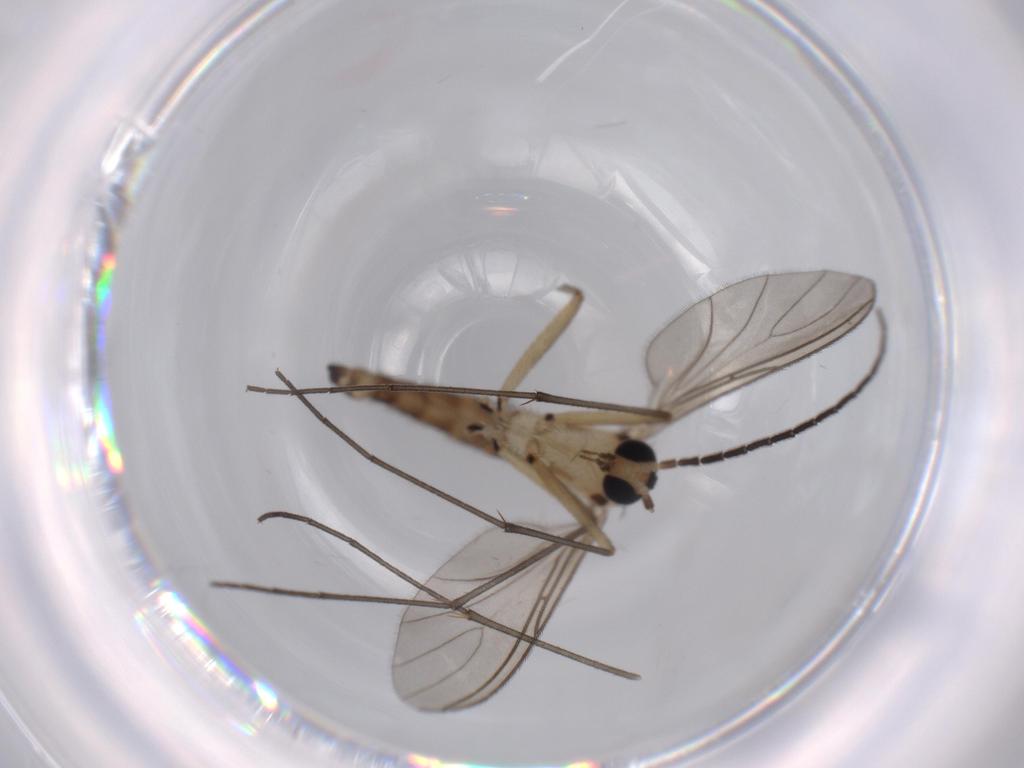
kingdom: Animalia
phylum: Arthropoda
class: Insecta
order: Diptera
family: Sciaridae
